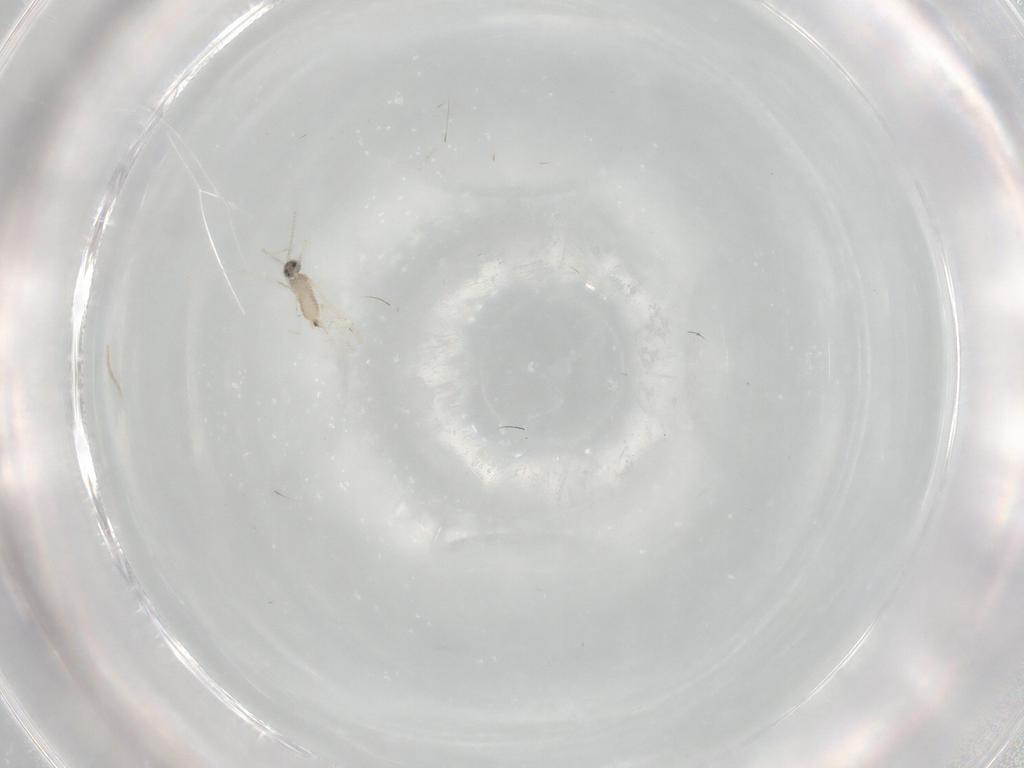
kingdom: Animalia
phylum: Arthropoda
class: Insecta
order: Diptera
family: Cecidomyiidae
